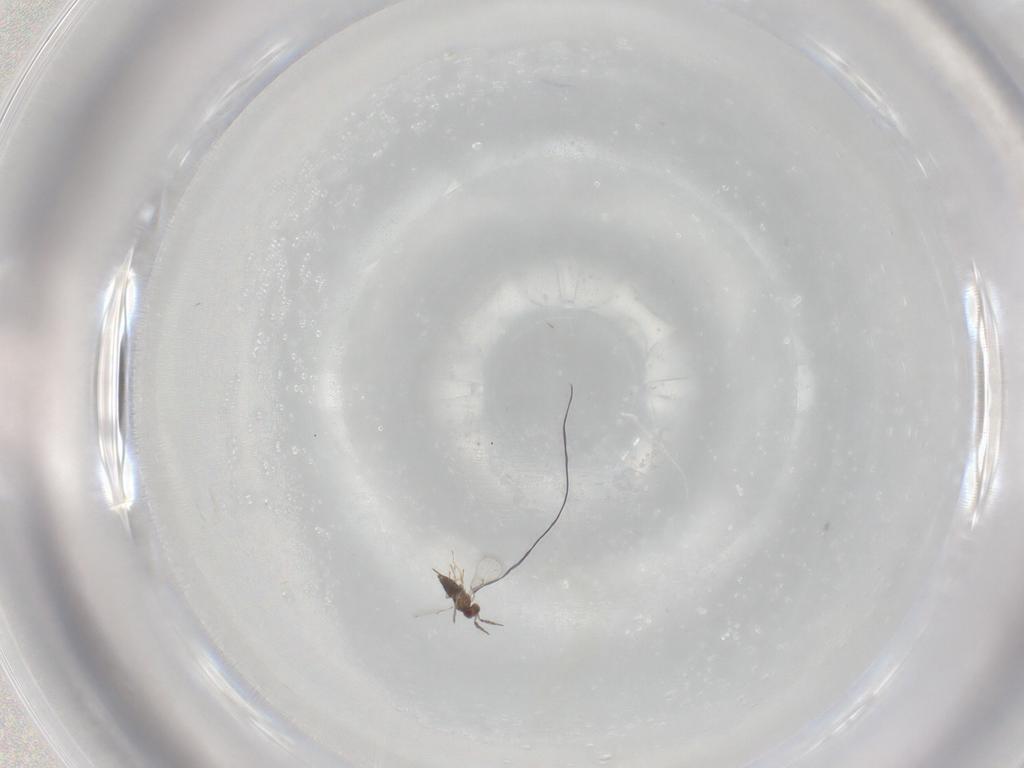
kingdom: Animalia
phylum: Arthropoda
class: Insecta
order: Hymenoptera
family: Trichogrammatidae
